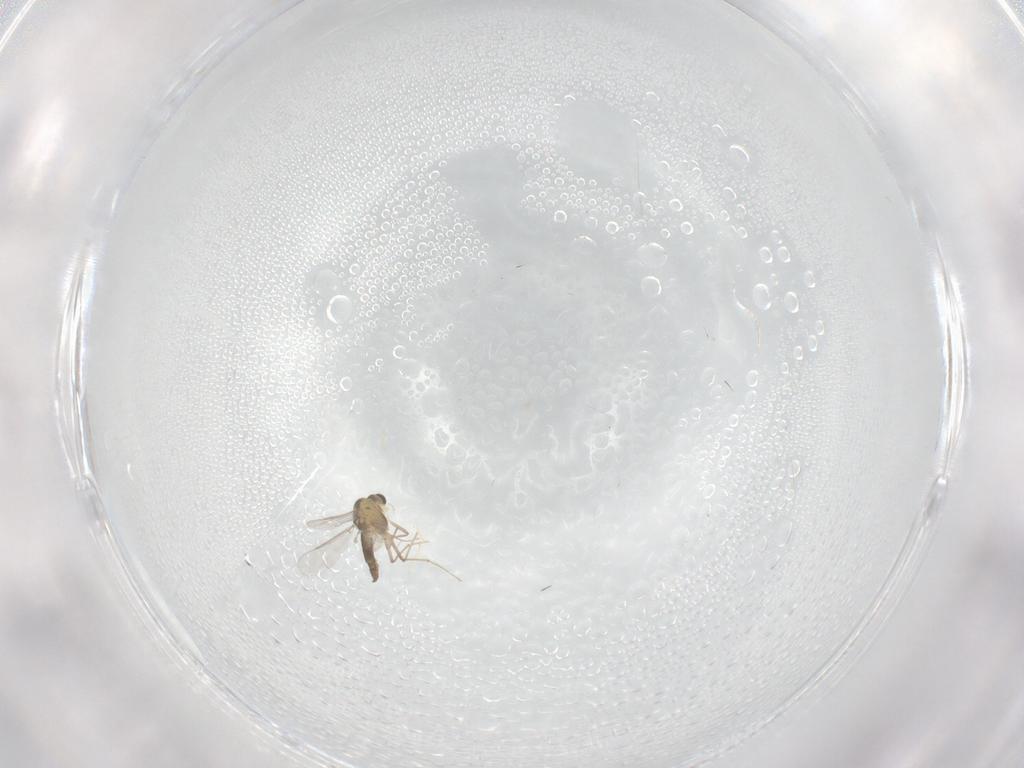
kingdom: Animalia
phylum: Arthropoda
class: Insecta
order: Diptera
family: Chironomidae
